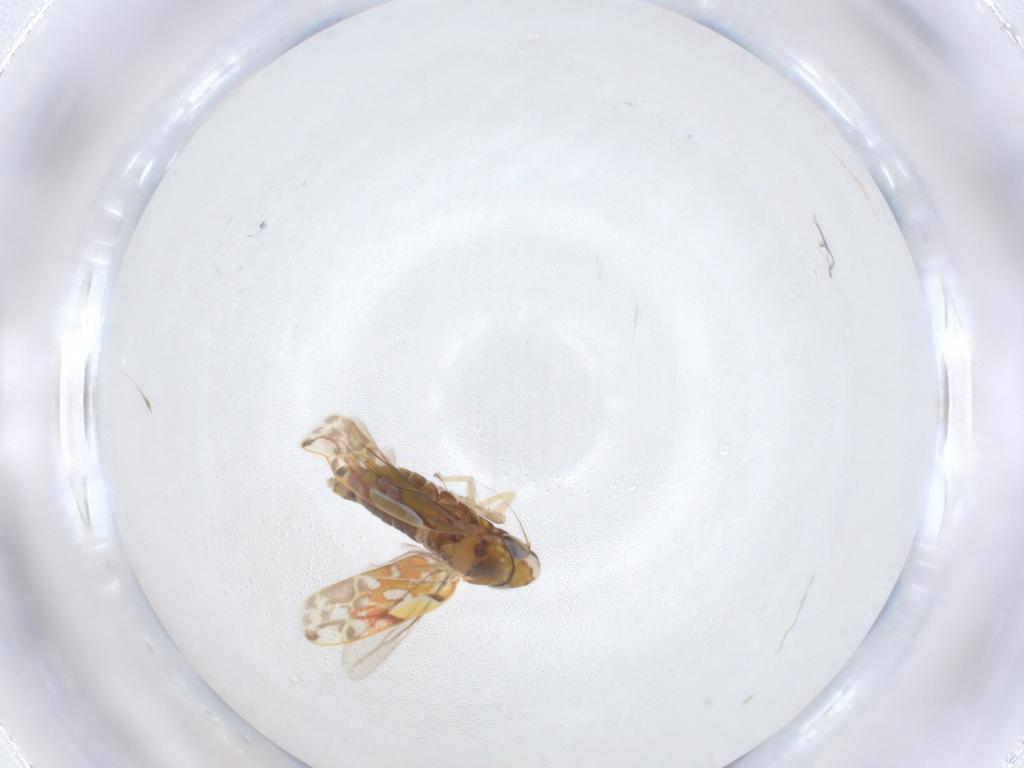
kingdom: Animalia
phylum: Arthropoda
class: Insecta
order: Hemiptera
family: Cicadellidae
